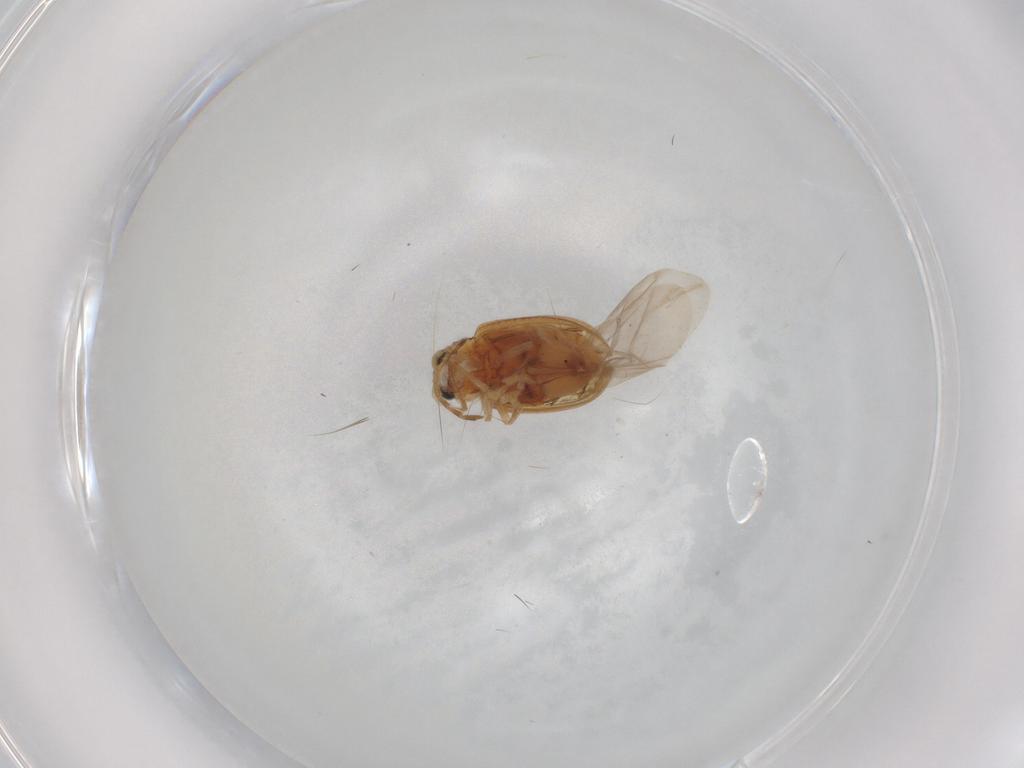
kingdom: Animalia
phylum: Arthropoda
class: Insecta
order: Coleoptera
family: Chrysomelidae
